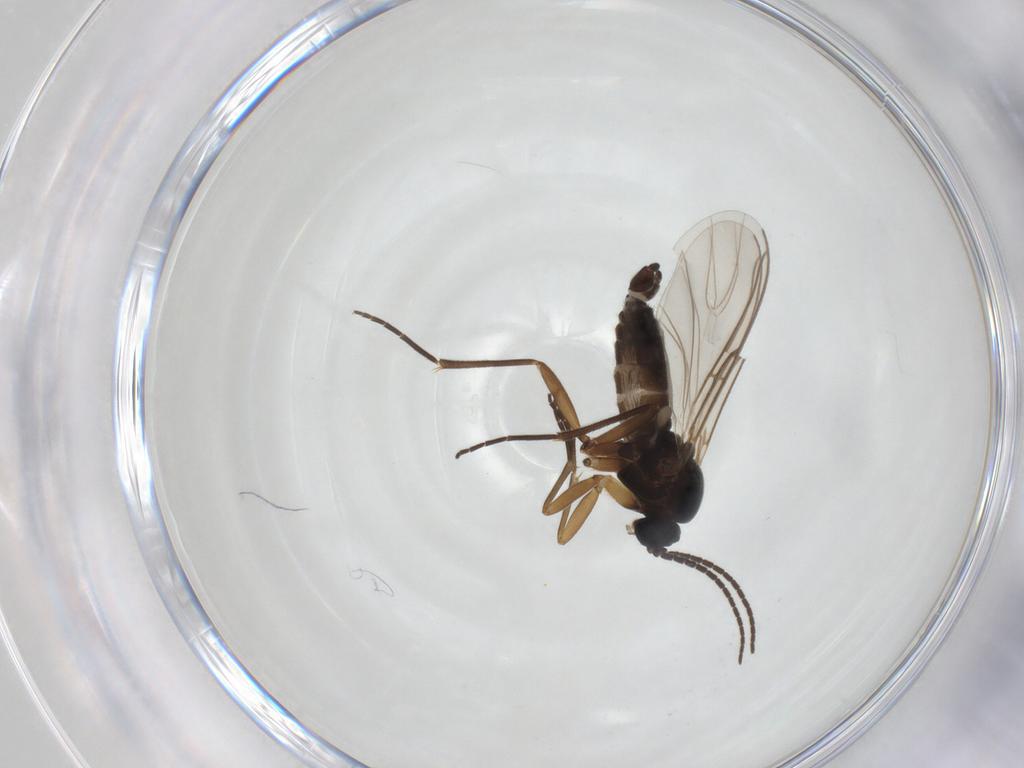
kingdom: Animalia
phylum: Arthropoda
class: Insecta
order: Diptera
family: Sciaridae
